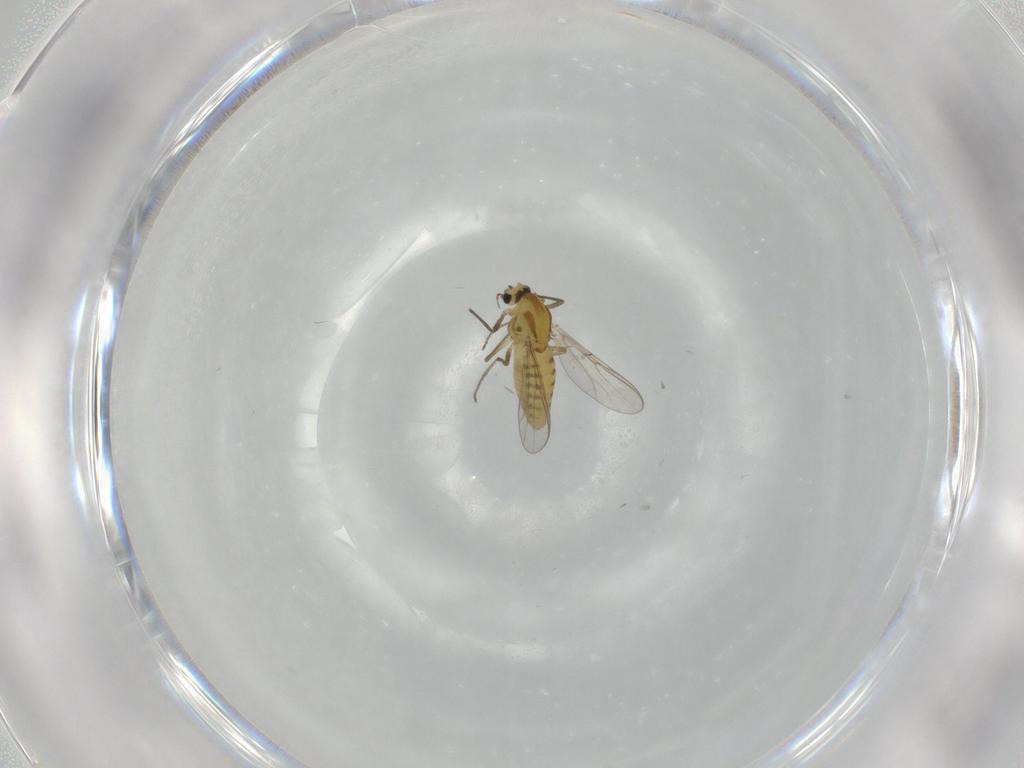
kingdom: Animalia
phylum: Arthropoda
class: Insecta
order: Diptera
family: Chironomidae
